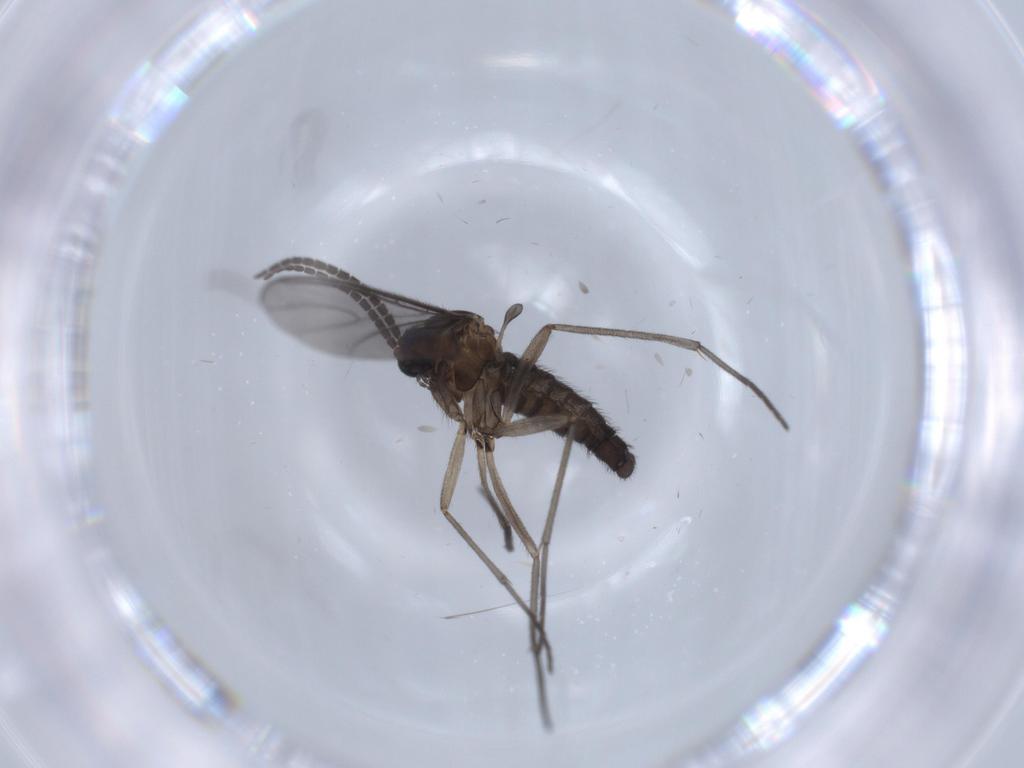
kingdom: Animalia
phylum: Arthropoda
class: Insecta
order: Diptera
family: Sciaridae
